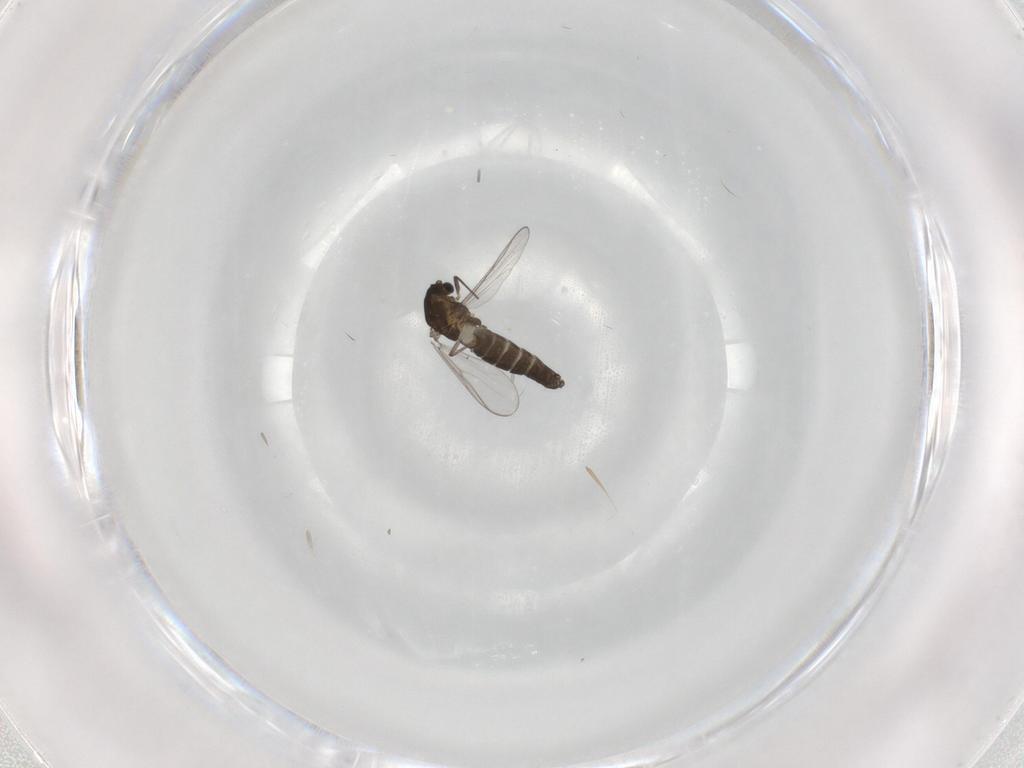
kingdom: Animalia
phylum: Arthropoda
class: Insecta
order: Diptera
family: Chironomidae
